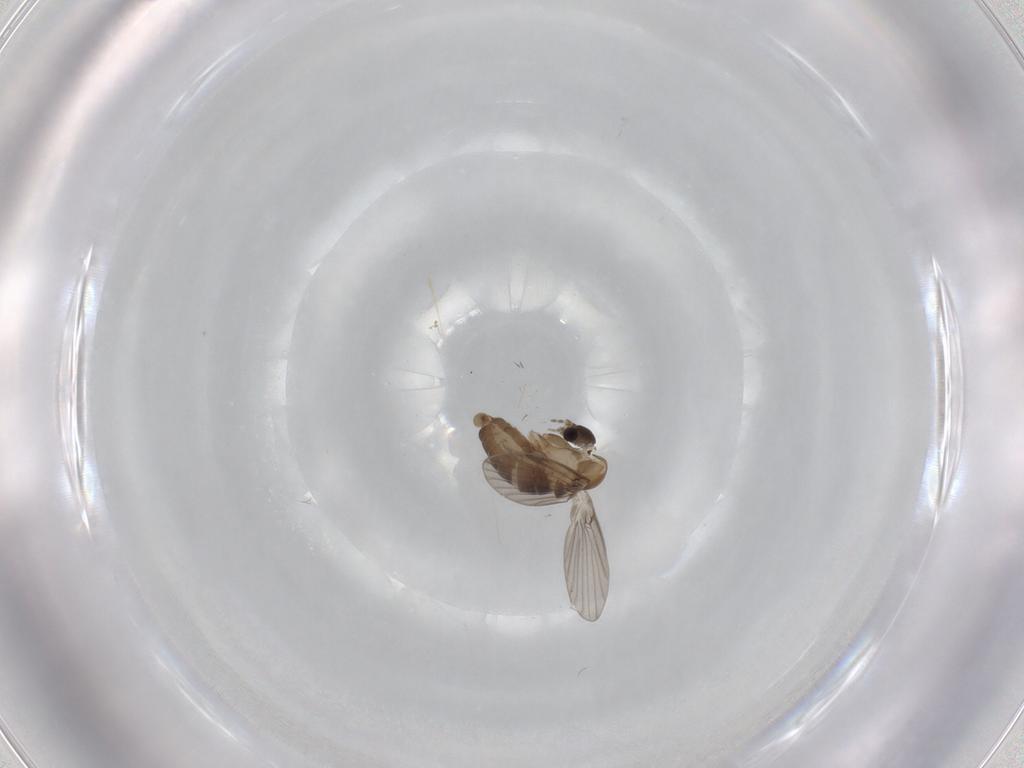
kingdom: Animalia
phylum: Arthropoda
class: Insecta
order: Diptera
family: Psychodidae
